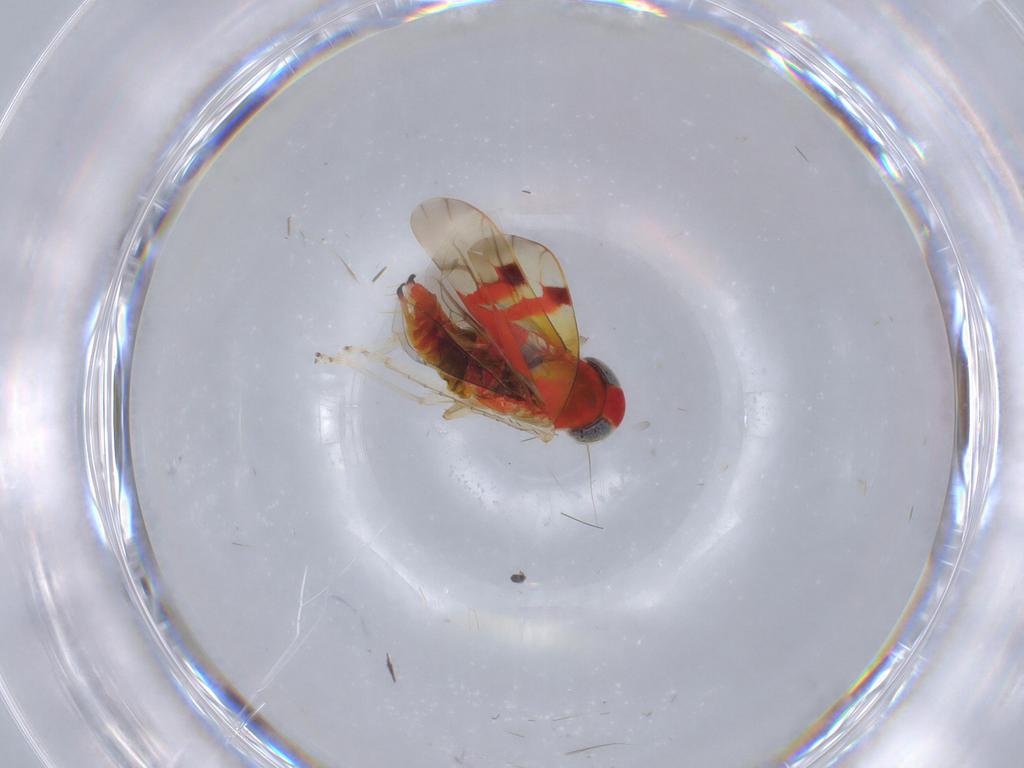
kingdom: Animalia
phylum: Arthropoda
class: Insecta
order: Hemiptera
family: Cicadellidae
